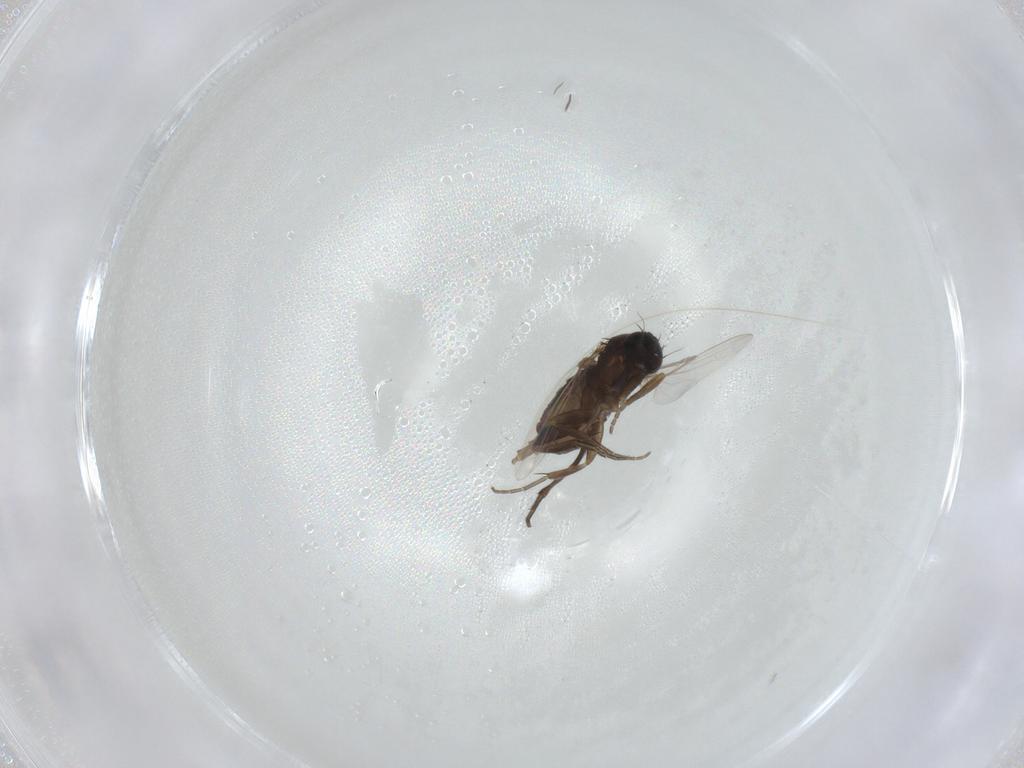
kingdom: Animalia
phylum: Arthropoda
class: Insecta
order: Diptera
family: Phoridae
